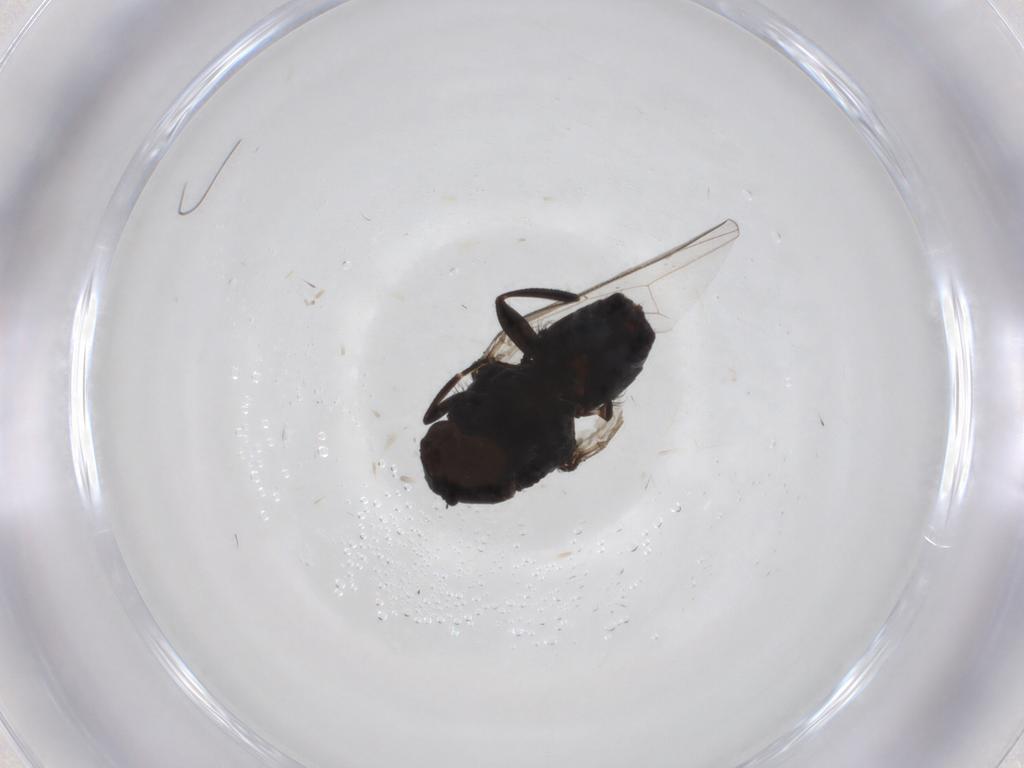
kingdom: Animalia
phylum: Arthropoda
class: Insecta
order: Diptera
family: Milichiidae
